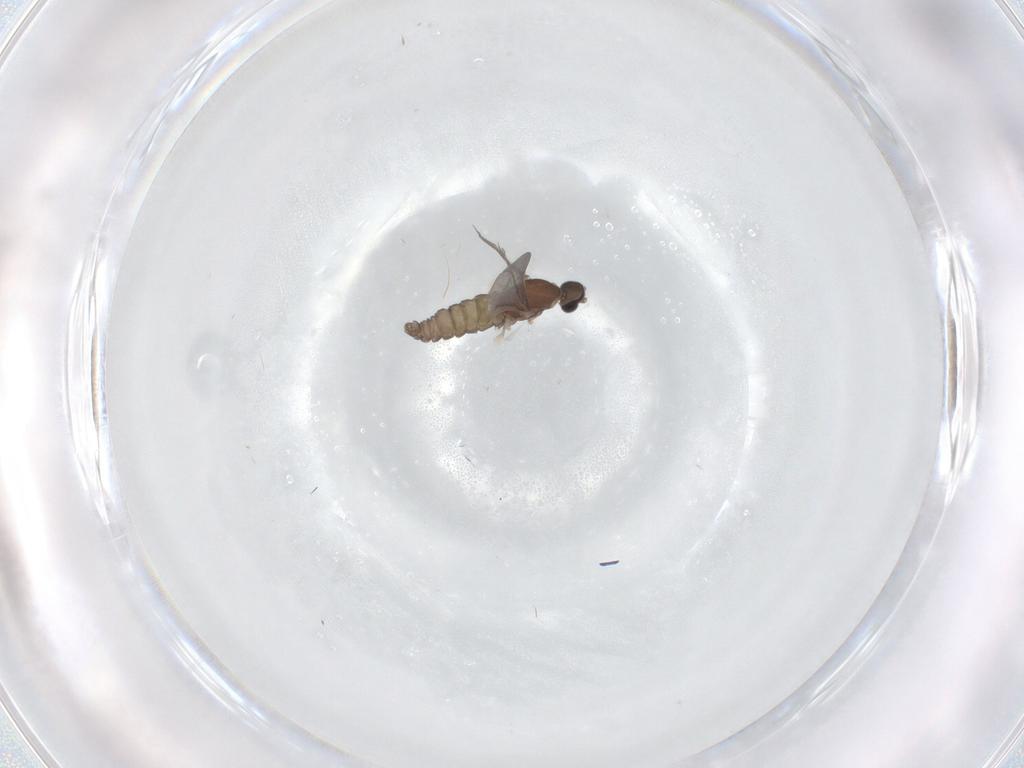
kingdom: Animalia
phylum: Arthropoda
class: Insecta
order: Diptera
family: Cecidomyiidae
